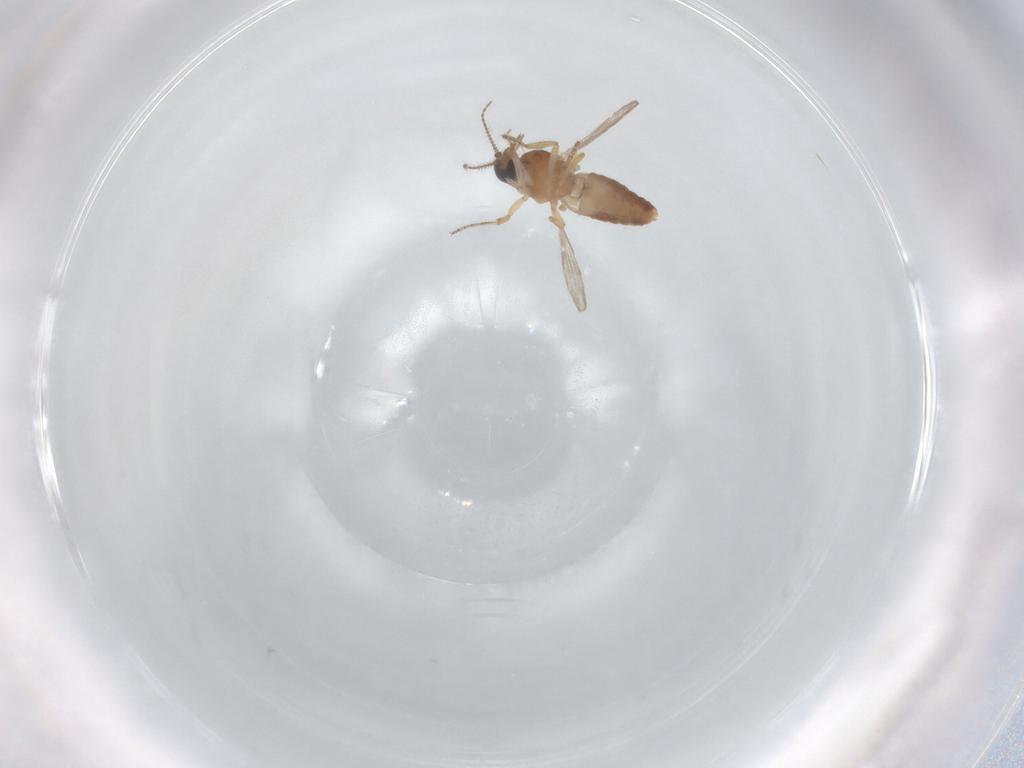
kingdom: Animalia
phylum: Arthropoda
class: Insecta
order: Diptera
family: Ceratopogonidae
